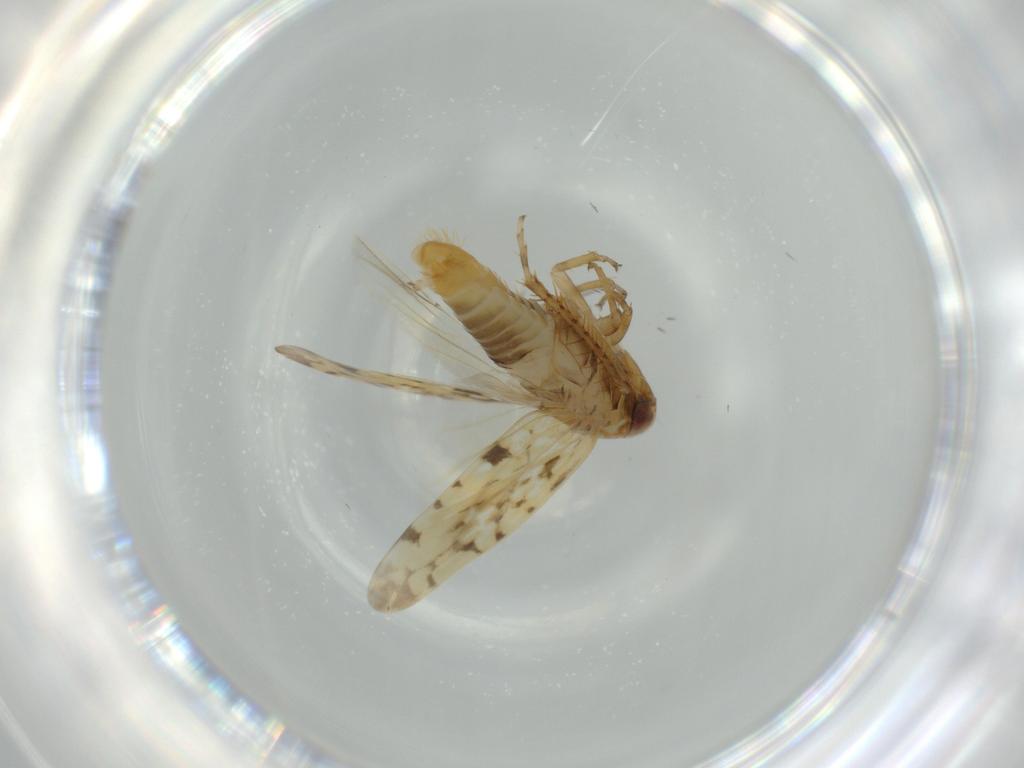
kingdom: Animalia
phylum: Arthropoda
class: Insecta
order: Hemiptera
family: Cicadellidae
